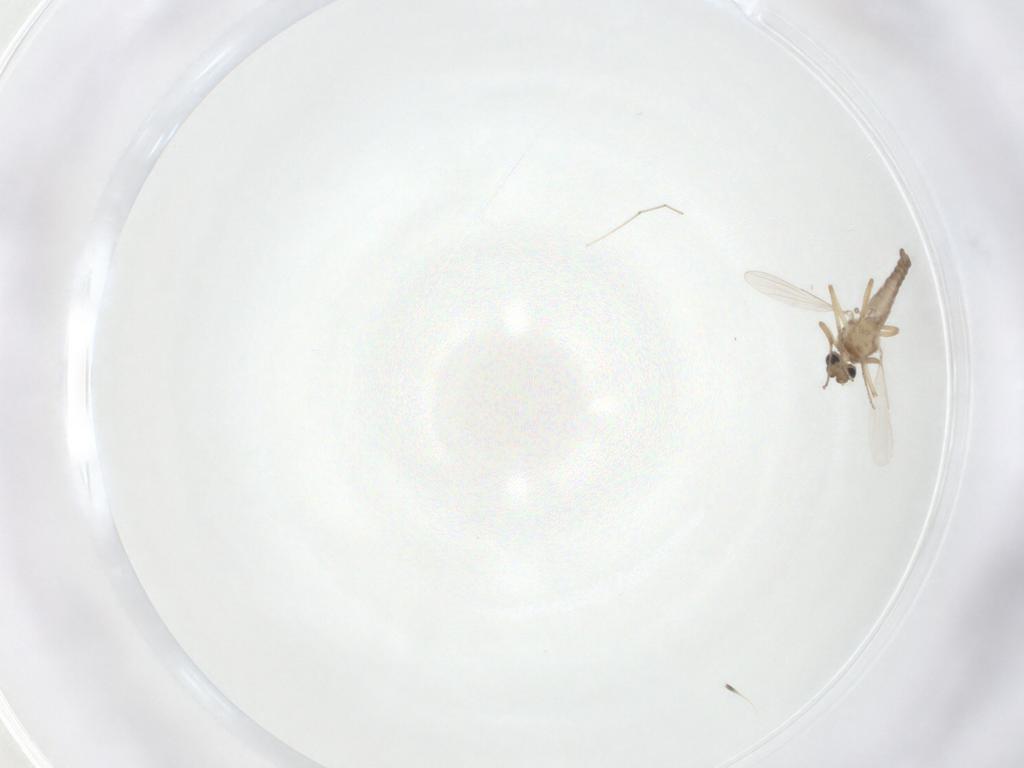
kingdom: Animalia
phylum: Arthropoda
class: Insecta
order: Diptera
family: Ceratopogonidae
